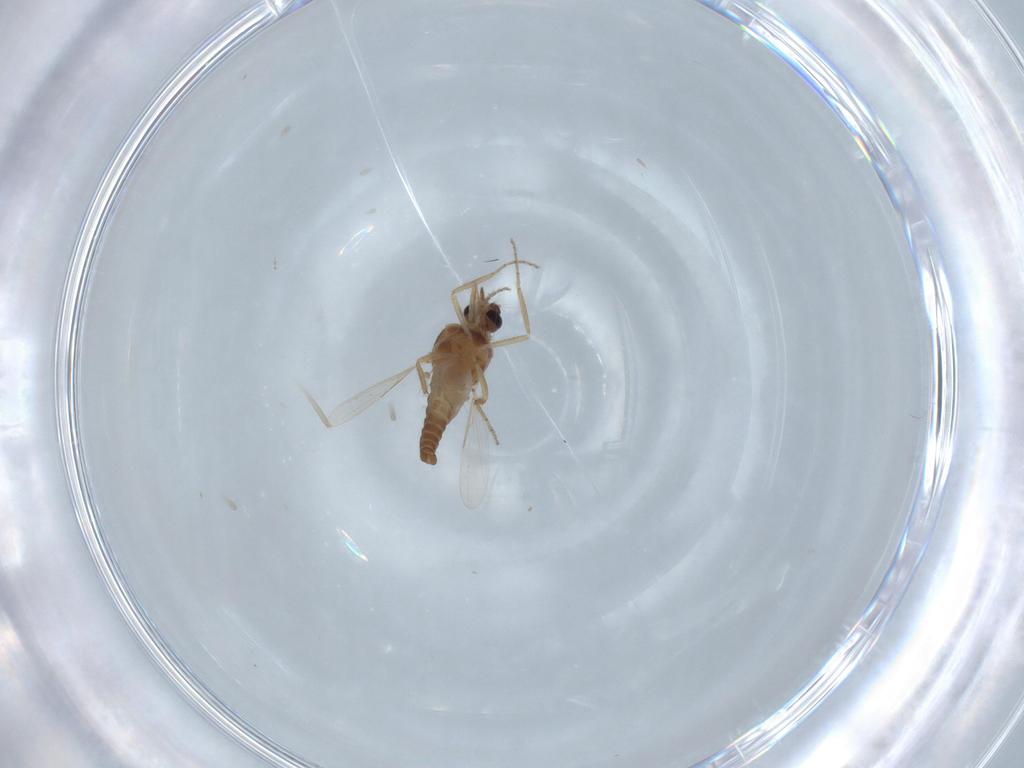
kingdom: Animalia
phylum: Arthropoda
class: Insecta
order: Diptera
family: Ceratopogonidae
